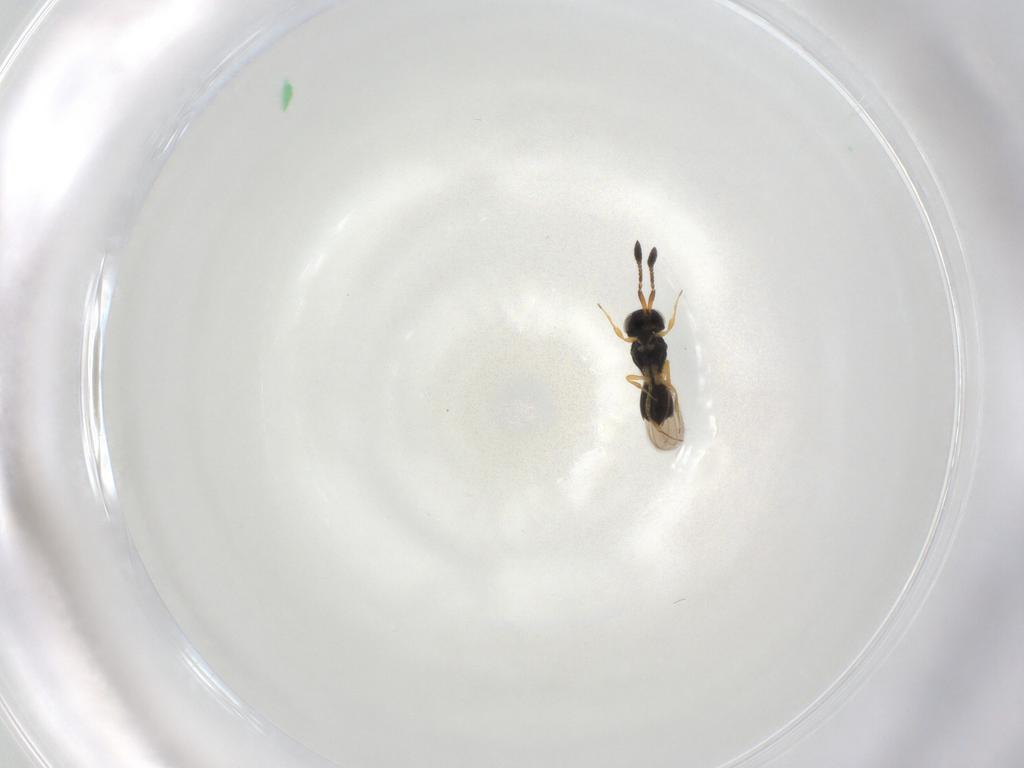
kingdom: Animalia
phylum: Arthropoda
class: Insecta
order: Hymenoptera
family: Scelionidae
